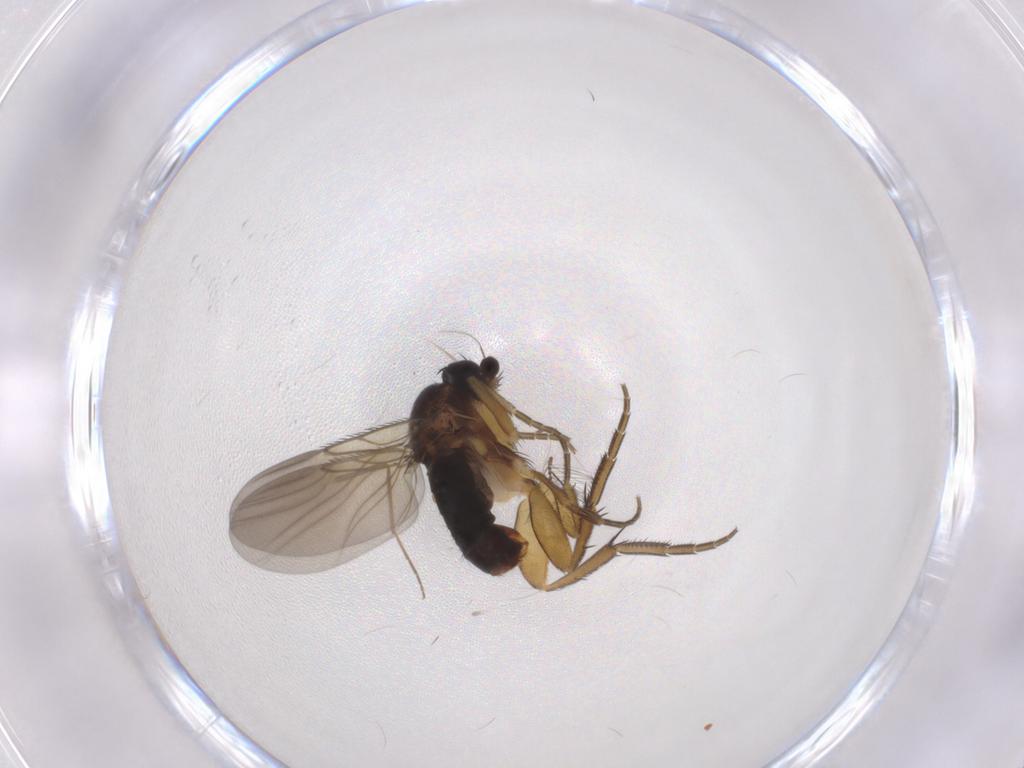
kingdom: Animalia
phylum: Arthropoda
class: Insecta
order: Diptera
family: Phoridae
